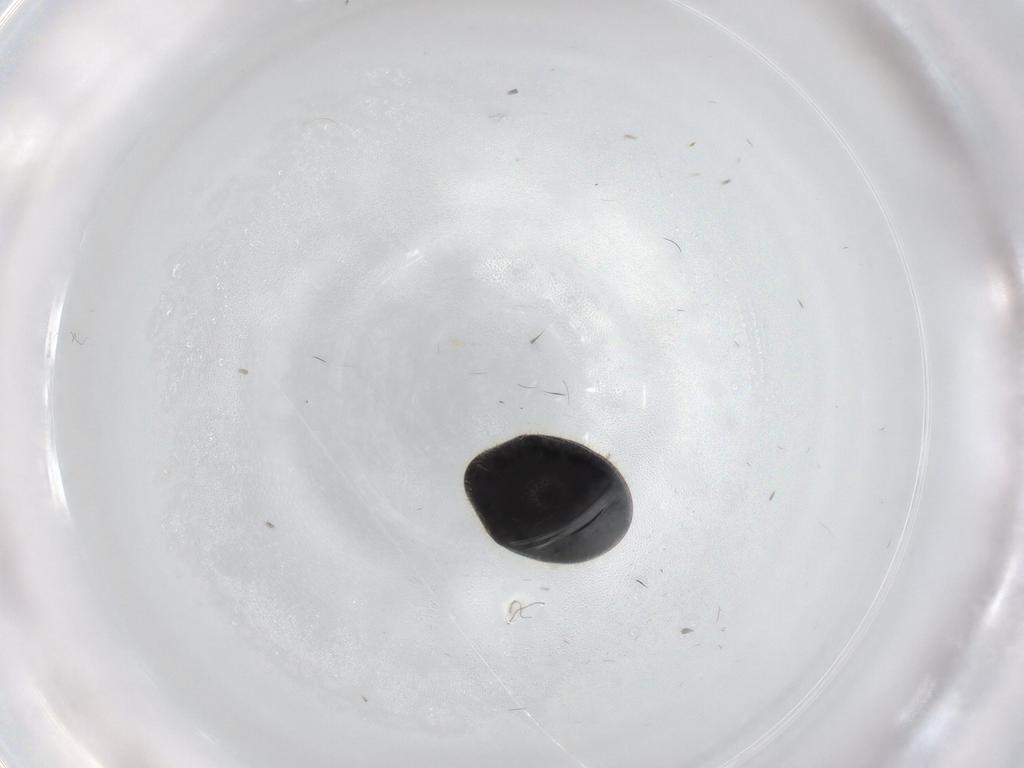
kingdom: Animalia
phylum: Arthropoda
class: Insecta
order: Coleoptera
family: Ptinidae
